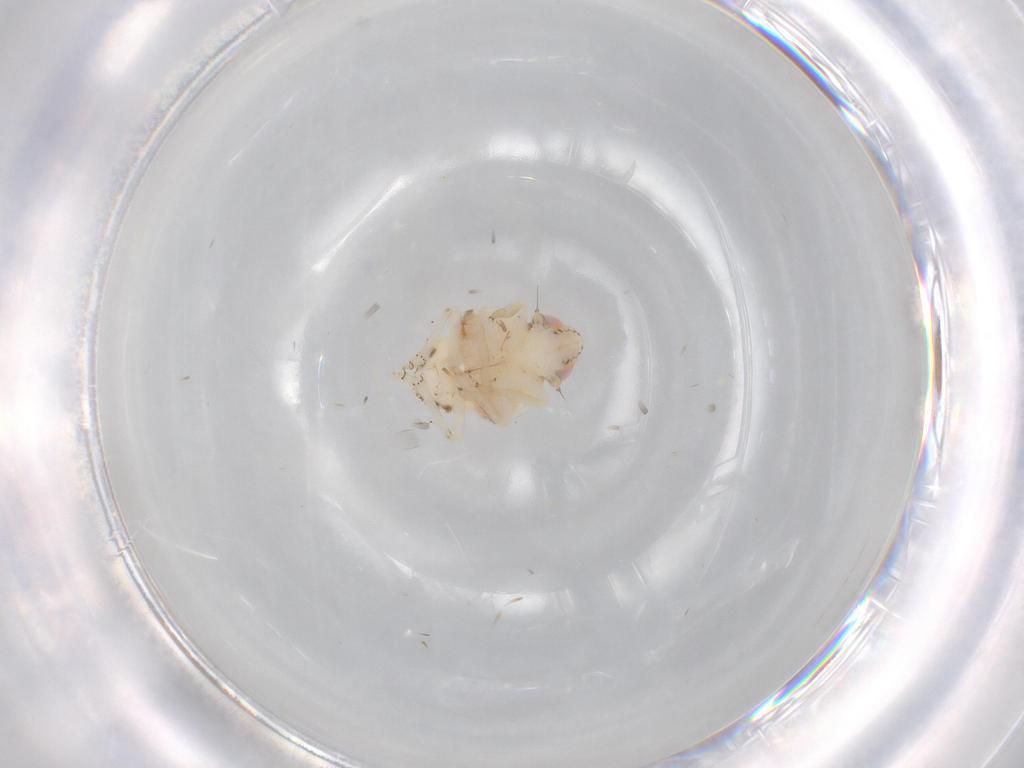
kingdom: Animalia
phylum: Arthropoda
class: Insecta
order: Hemiptera
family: Nogodinidae
